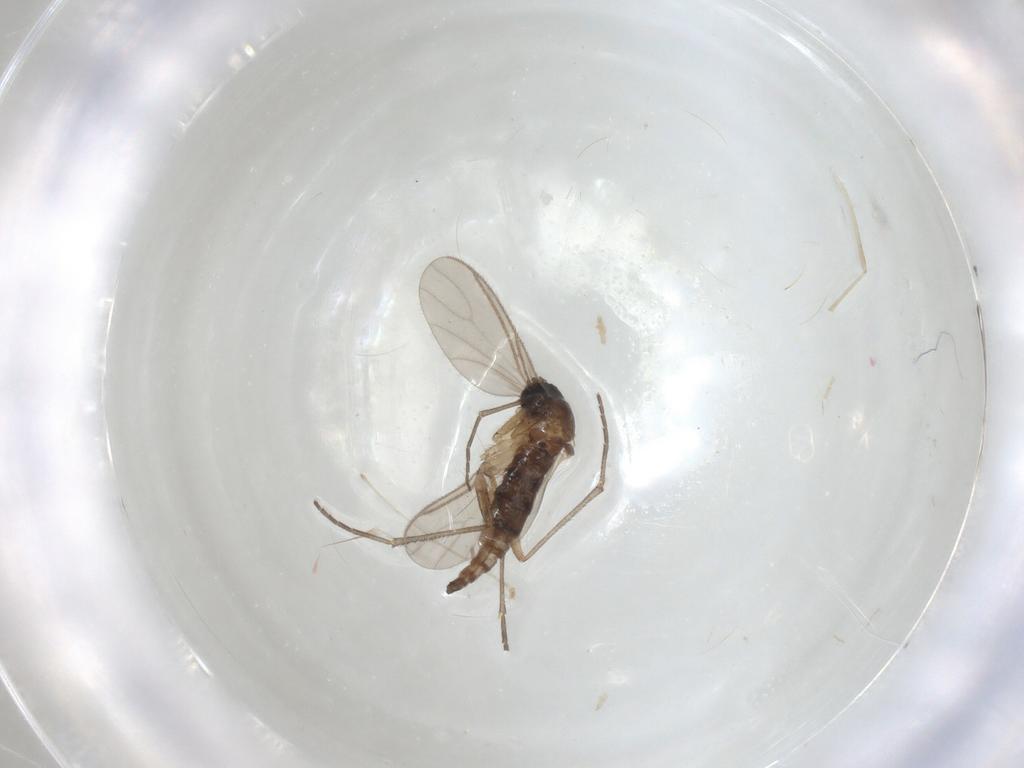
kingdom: Animalia
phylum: Arthropoda
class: Insecta
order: Diptera
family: Sciaridae
